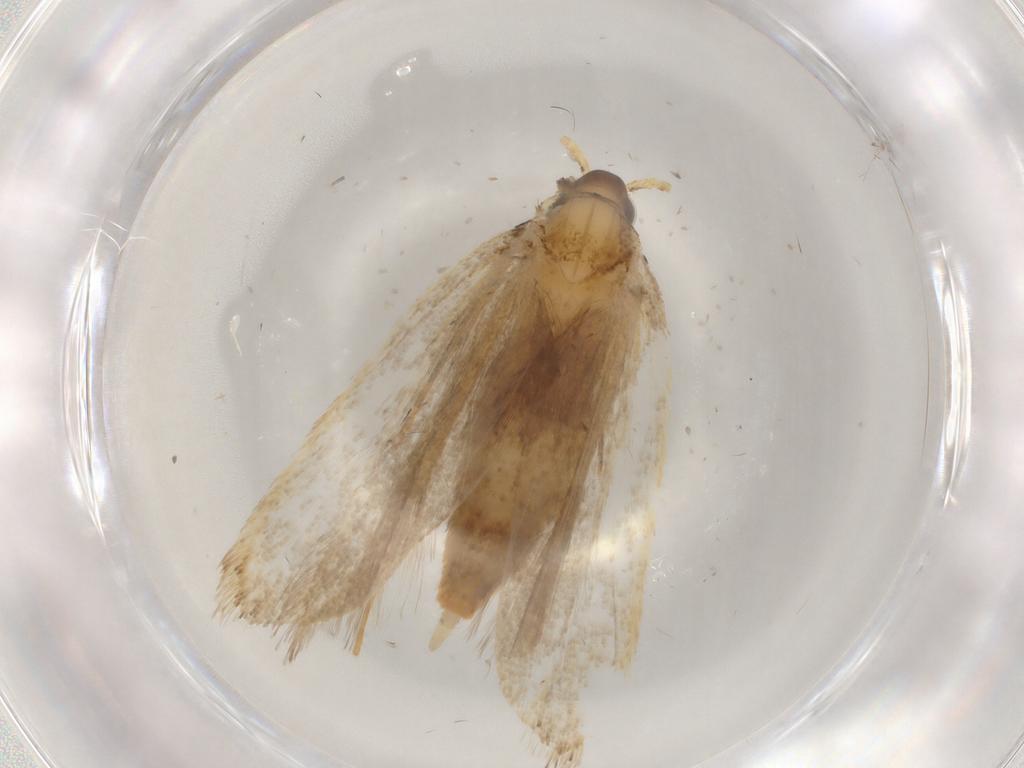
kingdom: Animalia
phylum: Arthropoda
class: Insecta
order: Lepidoptera
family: Lecithoceridae
